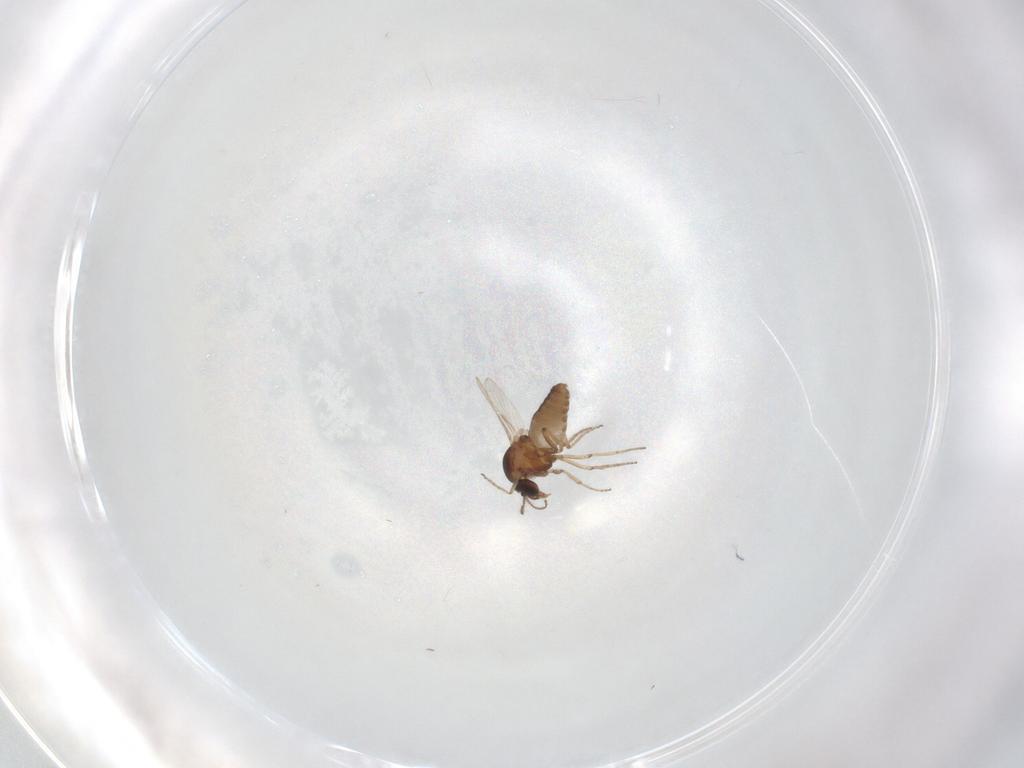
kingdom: Animalia
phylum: Arthropoda
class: Insecta
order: Diptera
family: Ceratopogonidae
